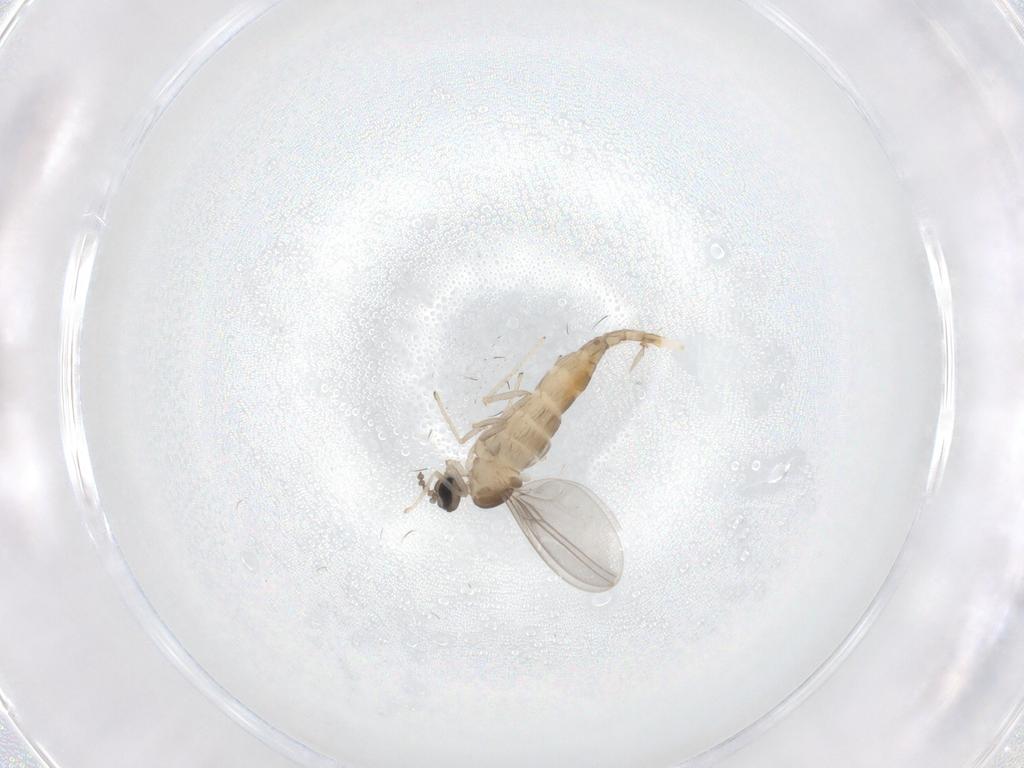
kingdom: Animalia
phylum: Arthropoda
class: Insecta
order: Diptera
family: Cecidomyiidae
